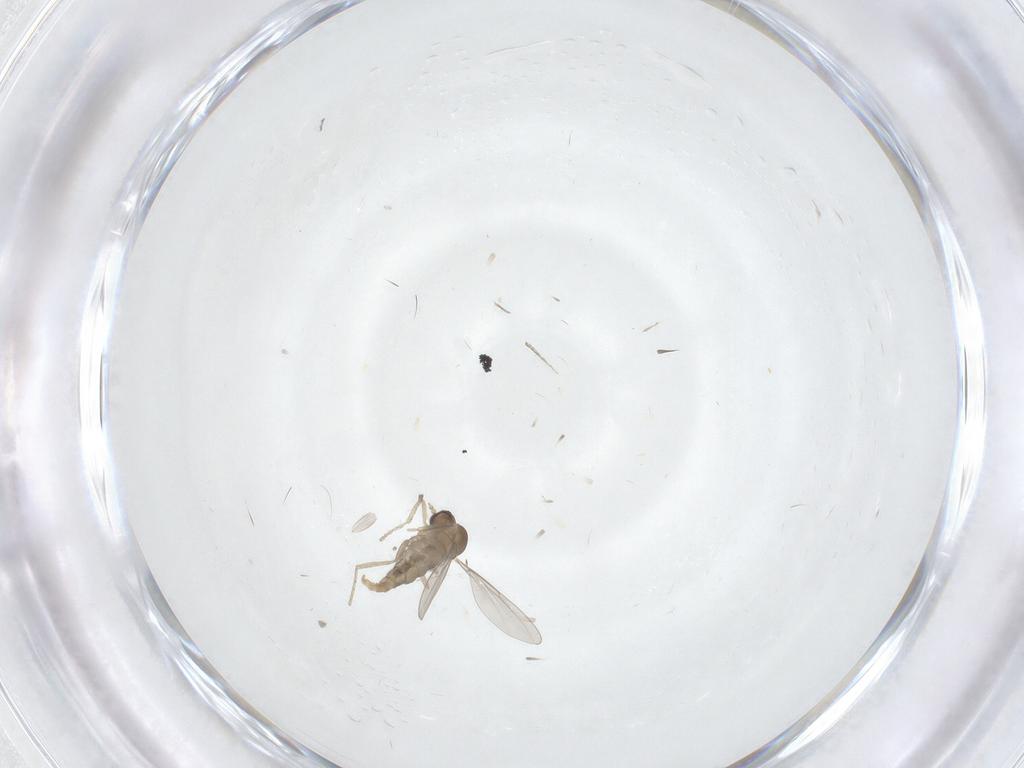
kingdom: Animalia
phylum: Arthropoda
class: Insecta
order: Diptera
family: Cecidomyiidae
